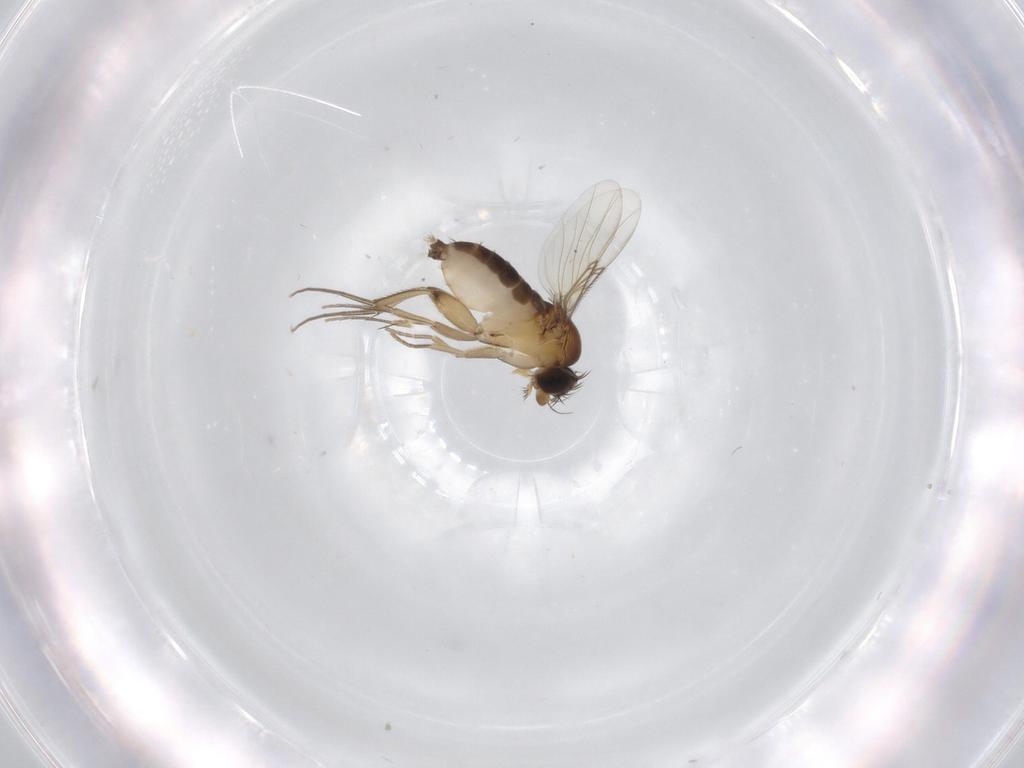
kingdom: Animalia
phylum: Arthropoda
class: Insecta
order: Diptera
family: Phoridae
